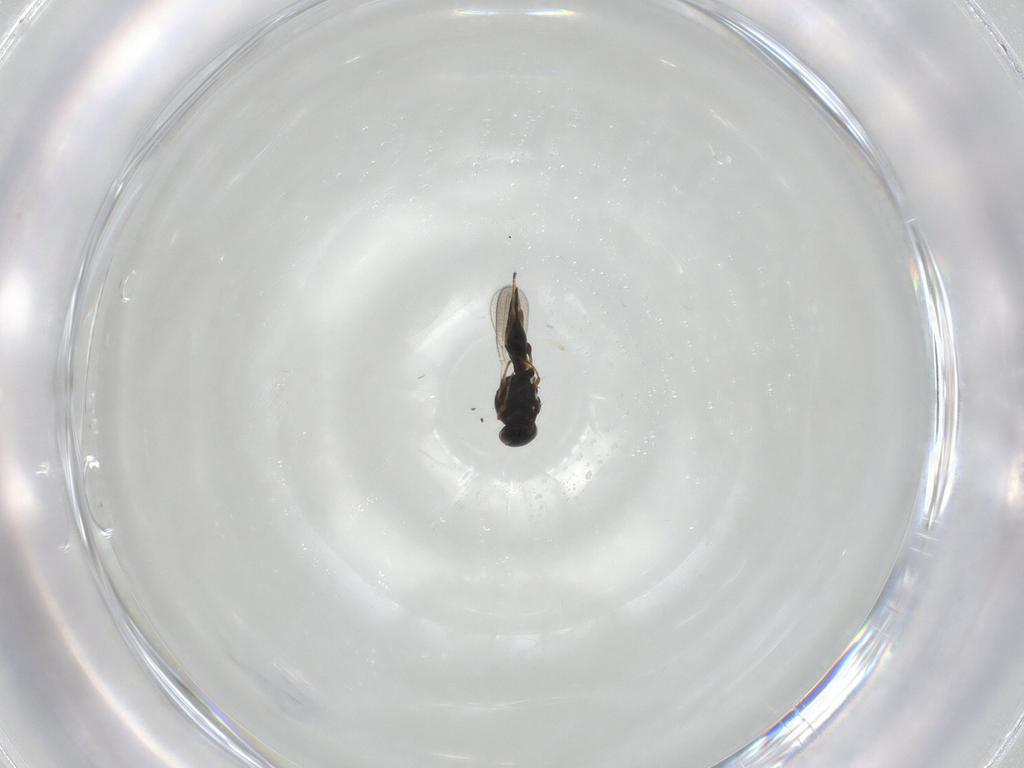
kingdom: Animalia
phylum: Arthropoda
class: Insecta
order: Hymenoptera
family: Platygastridae
